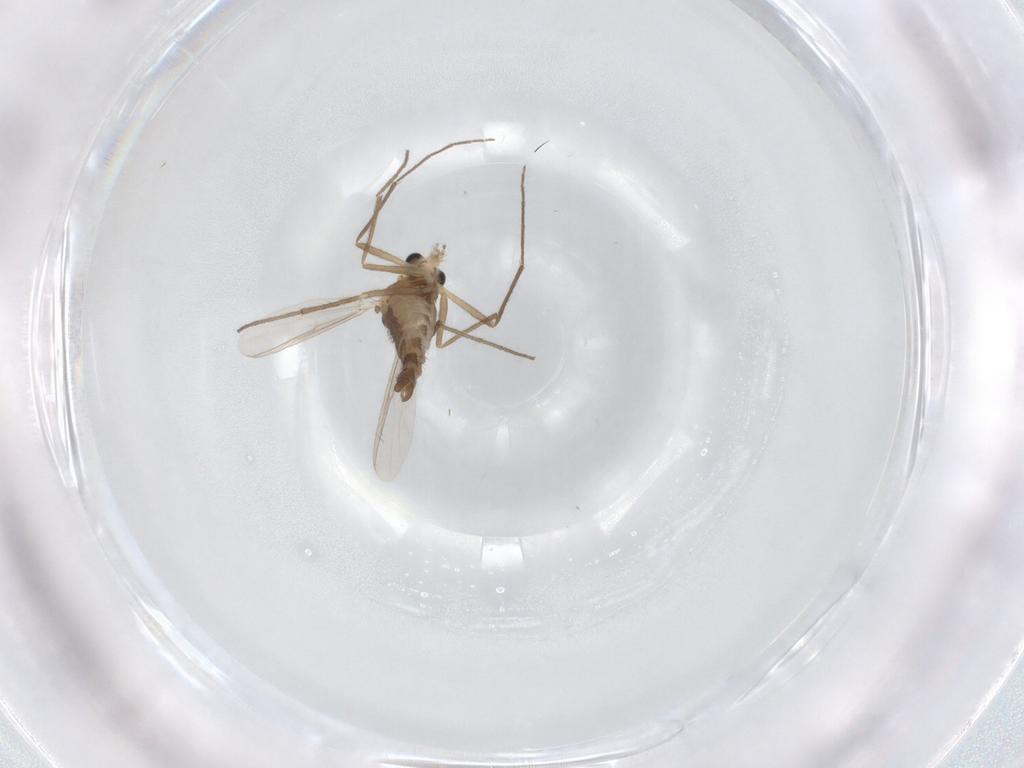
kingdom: Animalia
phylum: Arthropoda
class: Insecta
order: Diptera
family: Chironomidae
